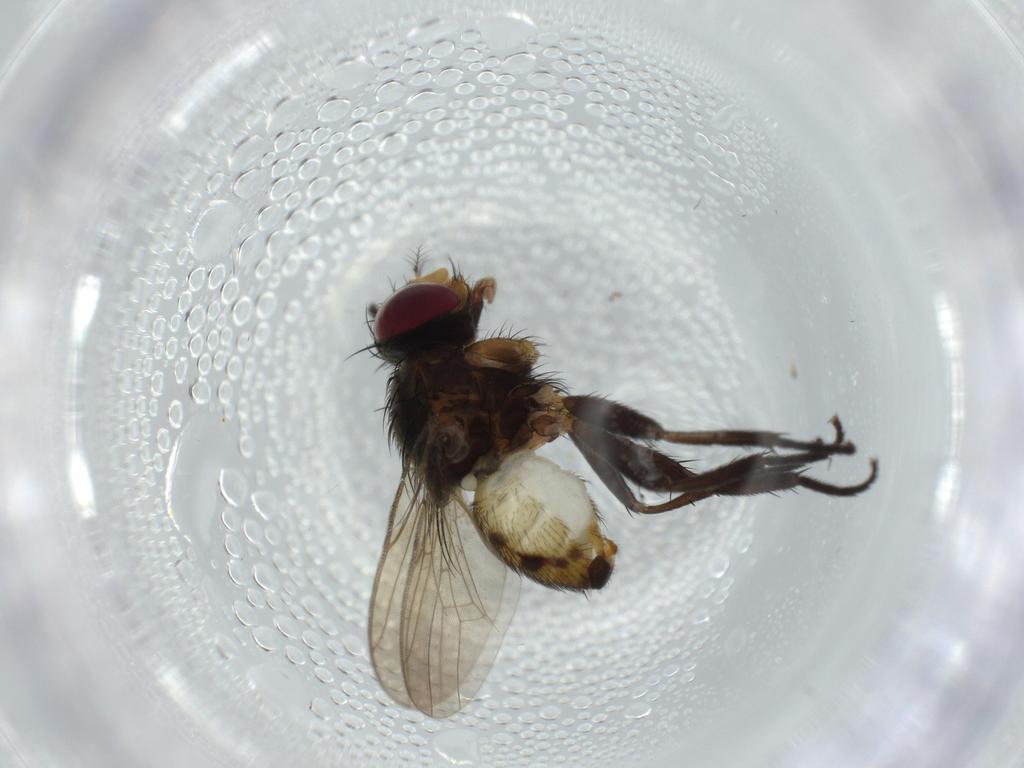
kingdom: Animalia
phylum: Arthropoda
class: Insecta
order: Diptera
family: Anthomyiidae
